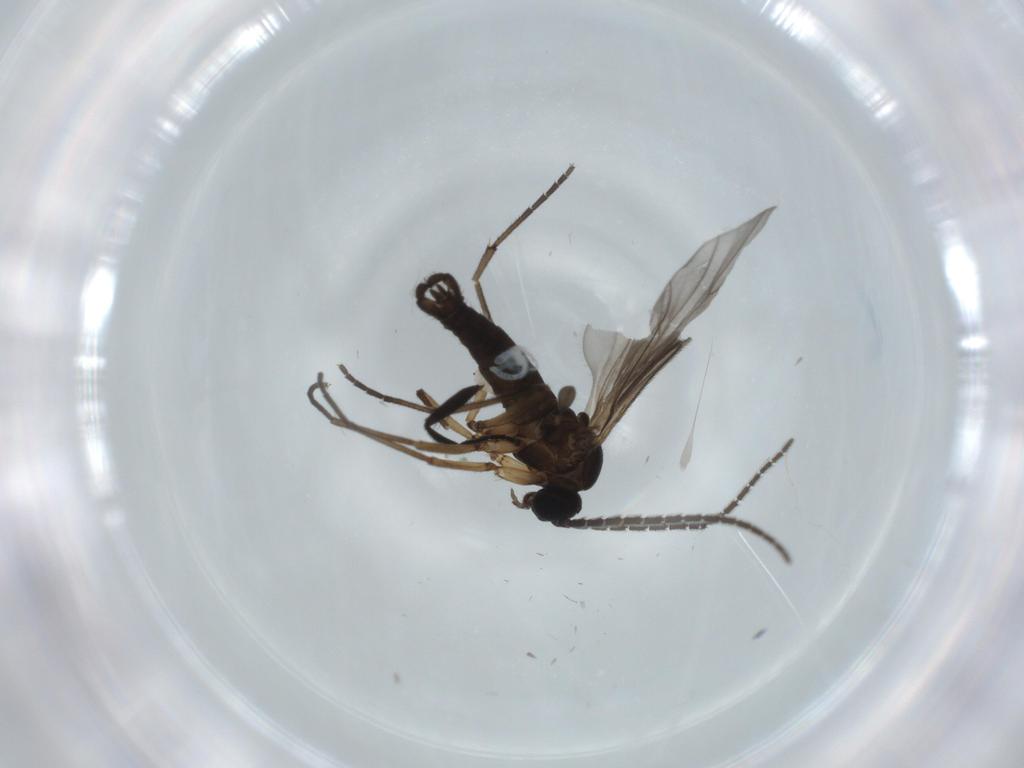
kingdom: Animalia
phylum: Arthropoda
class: Insecta
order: Diptera
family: Sciaridae
